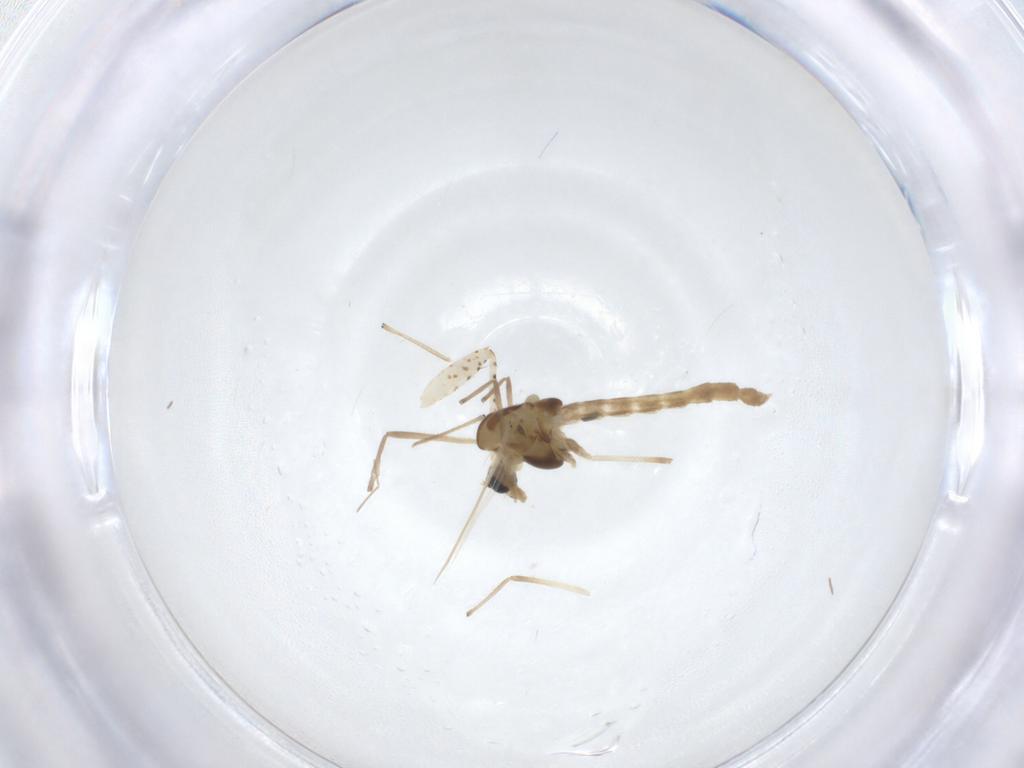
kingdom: Animalia
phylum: Arthropoda
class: Insecta
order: Diptera
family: Chironomidae
